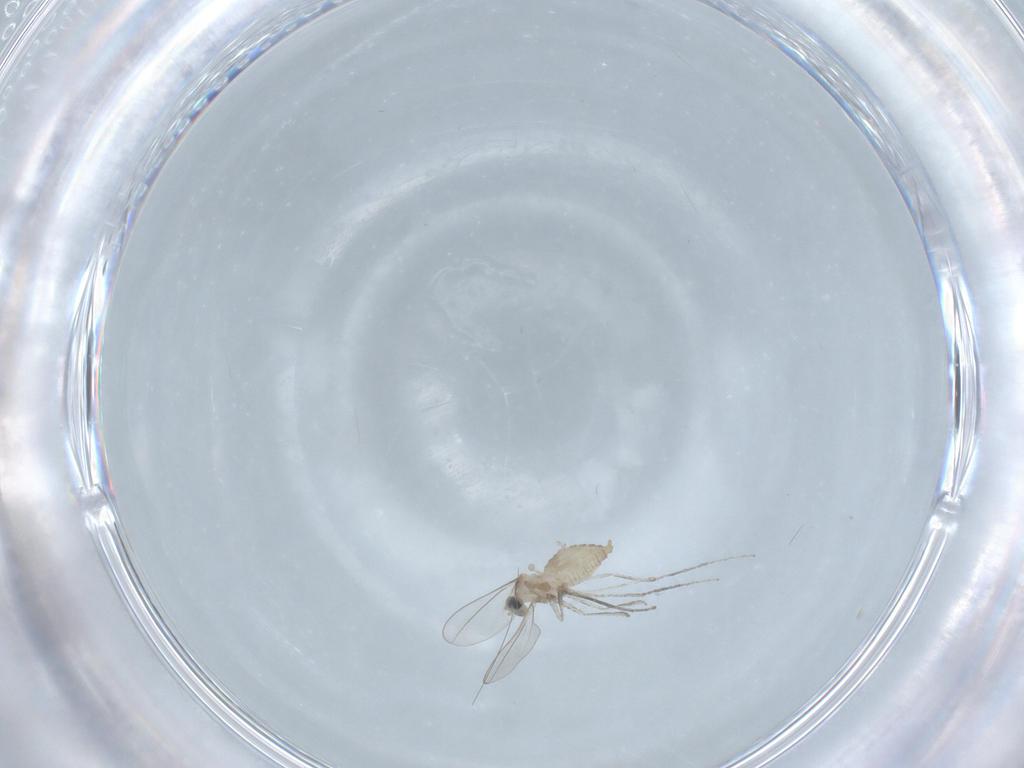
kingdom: Animalia
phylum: Arthropoda
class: Insecta
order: Diptera
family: Cecidomyiidae
